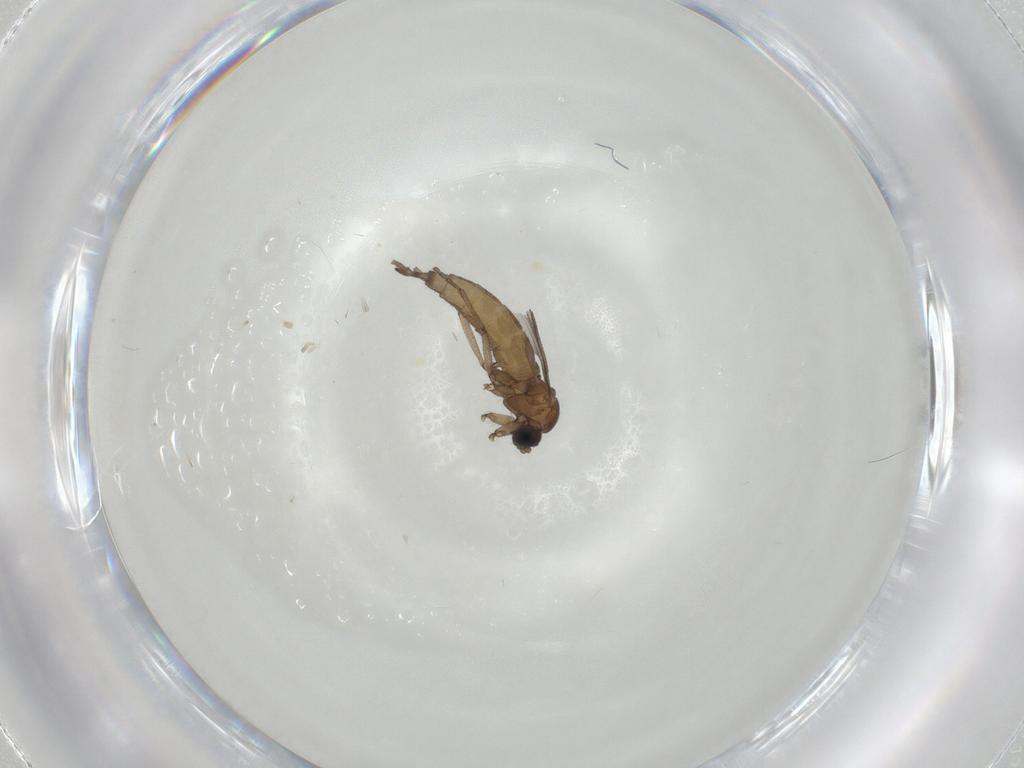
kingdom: Animalia
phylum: Arthropoda
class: Insecta
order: Diptera
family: Sciaridae
